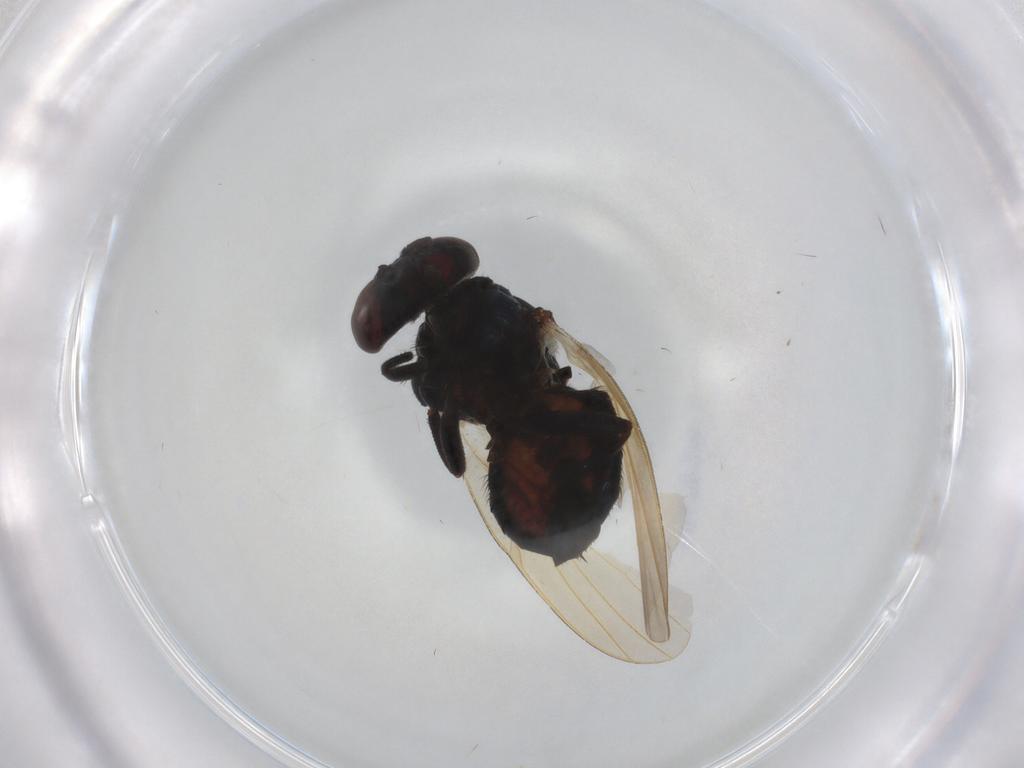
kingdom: Animalia
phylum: Arthropoda
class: Insecta
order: Diptera
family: Lonchaeidae
